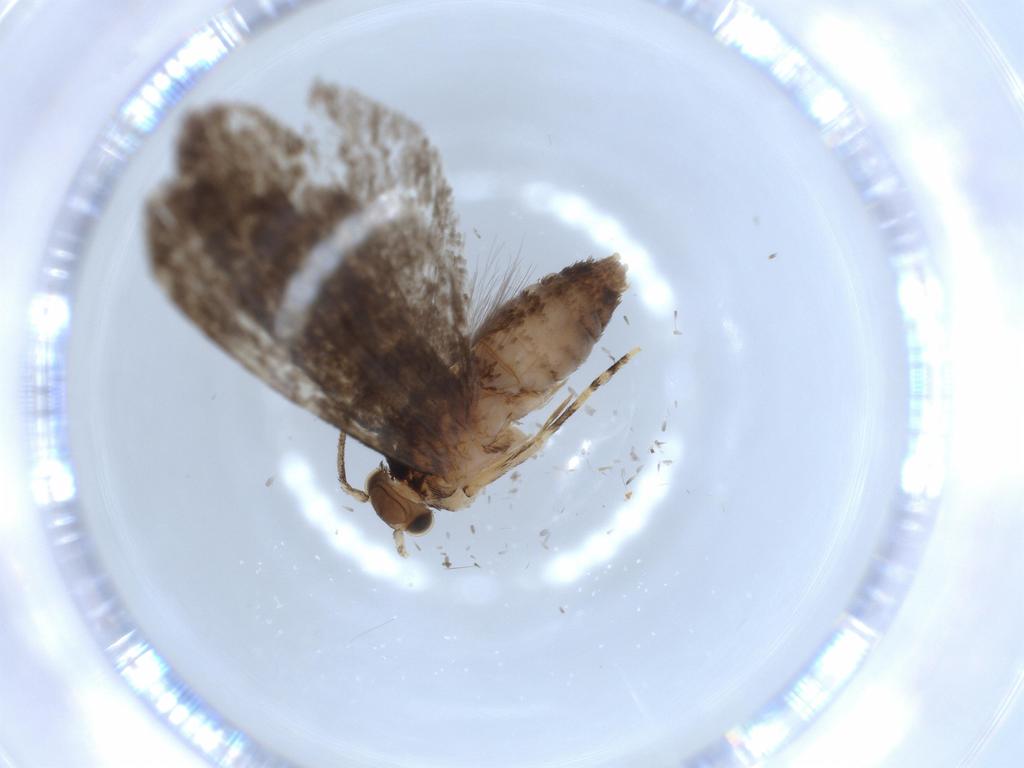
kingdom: Animalia
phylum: Arthropoda
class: Insecta
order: Lepidoptera
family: Tineidae
